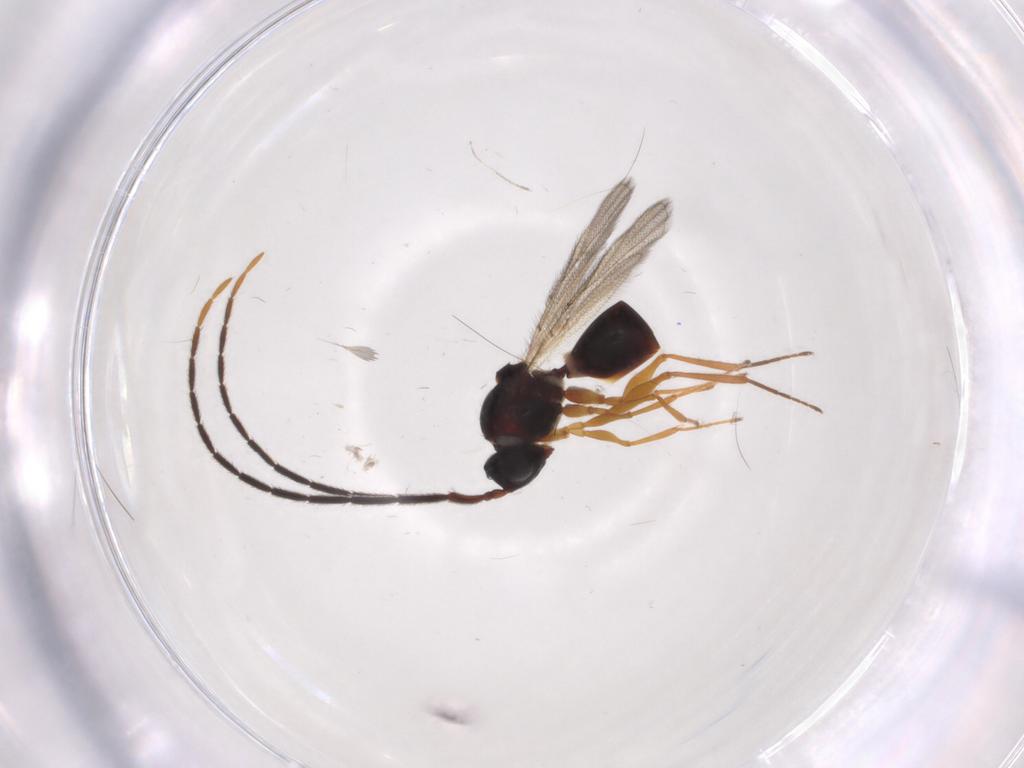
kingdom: Animalia
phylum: Arthropoda
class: Insecta
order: Hymenoptera
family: Figitidae
